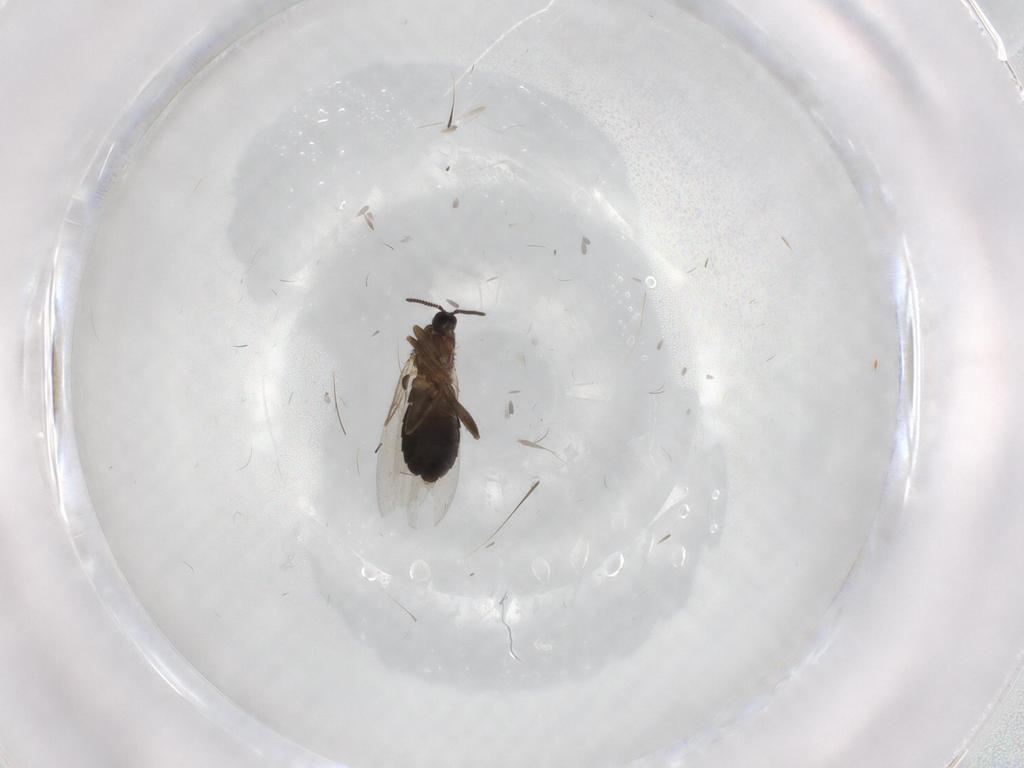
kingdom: Animalia
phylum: Arthropoda
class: Insecta
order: Diptera
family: Scatopsidae
